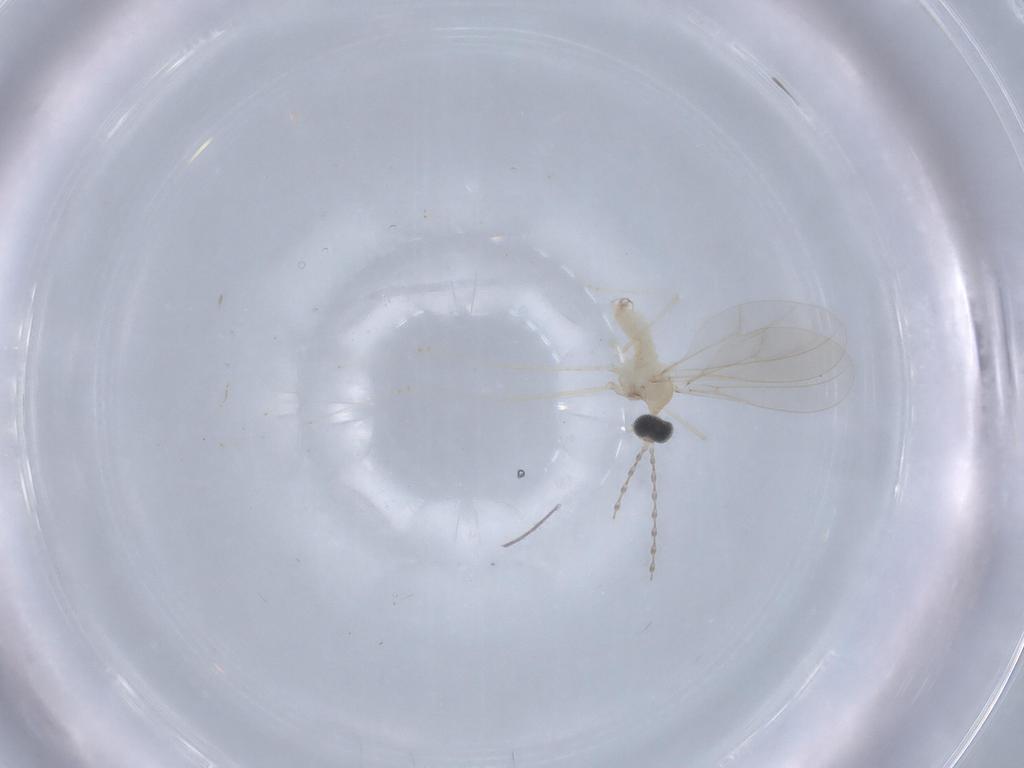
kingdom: Animalia
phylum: Arthropoda
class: Insecta
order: Diptera
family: Cecidomyiidae
